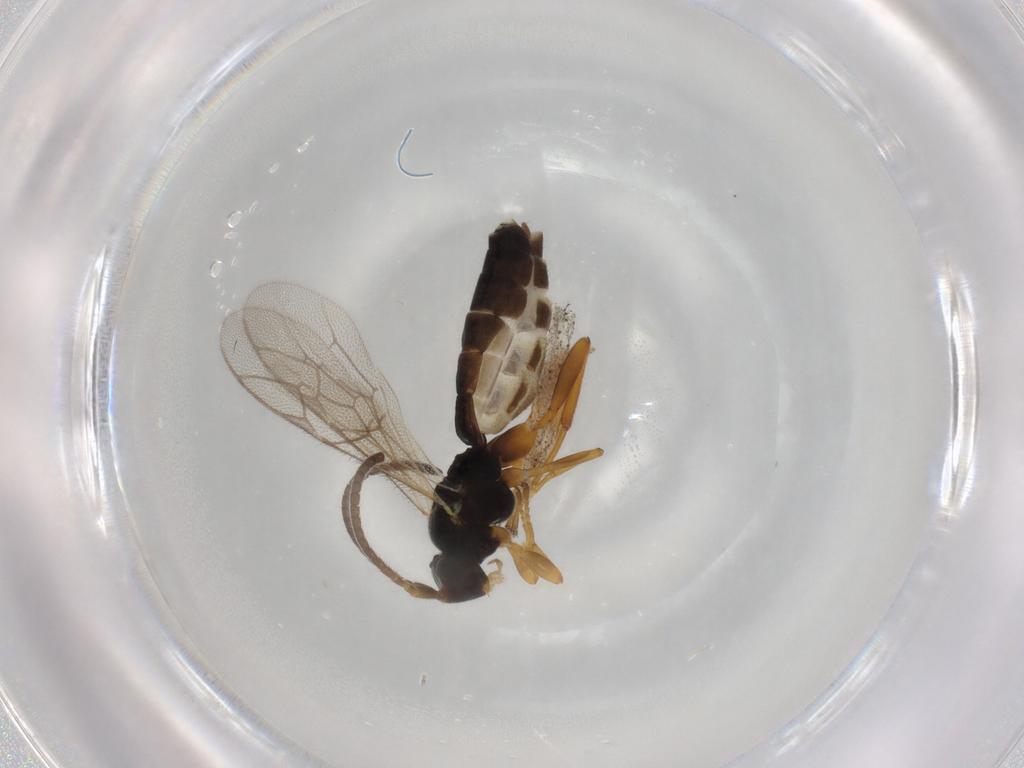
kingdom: Animalia
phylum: Arthropoda
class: Insecta
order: Hymenoptera
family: Ichneumonidae
